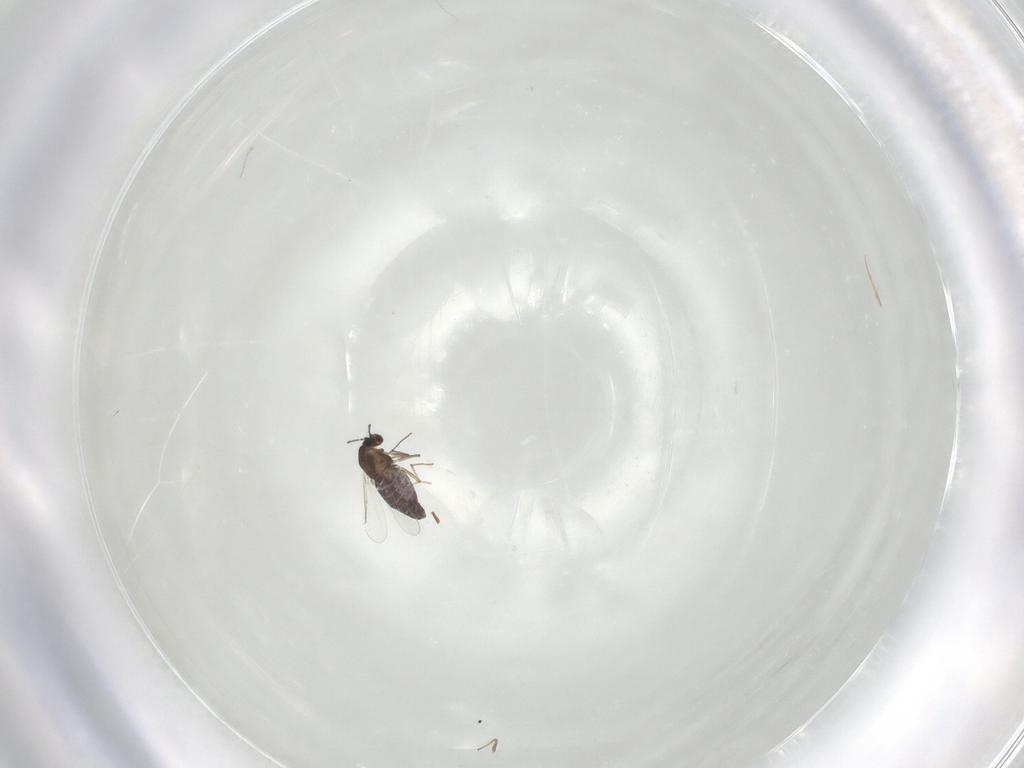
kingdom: Animalia
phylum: Arthropoda
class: Insecta
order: Diptera
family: Chironomidae
